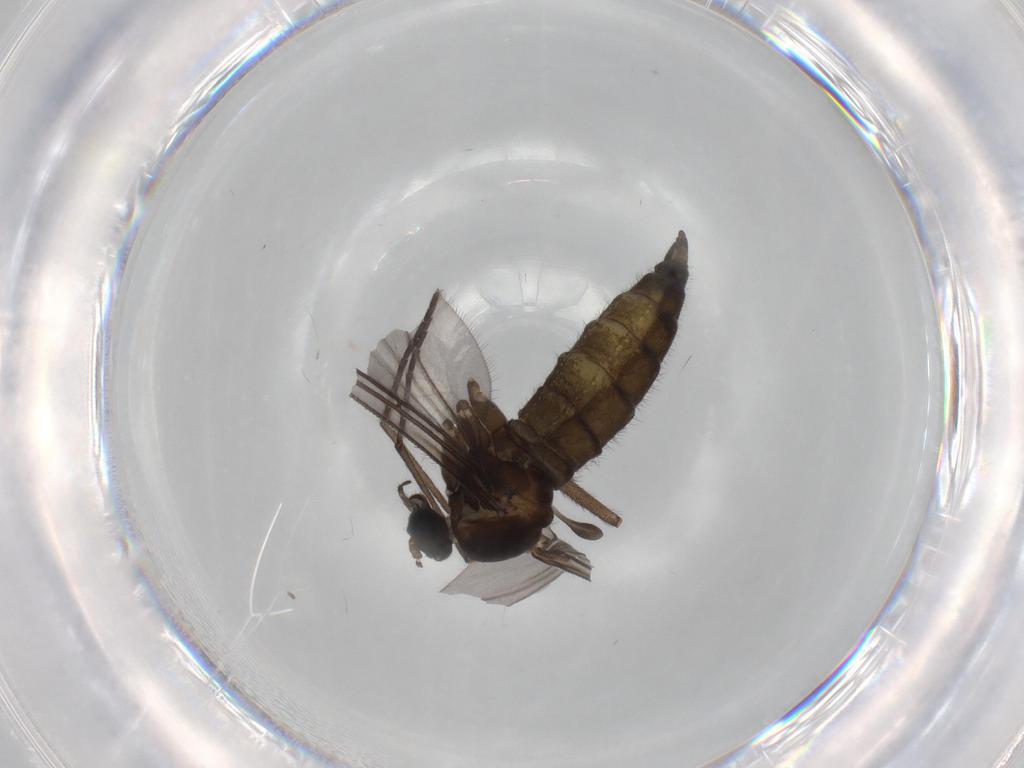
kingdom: Animalia
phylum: Arthropoda
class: Insecta
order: Diptera
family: Sciaridae
